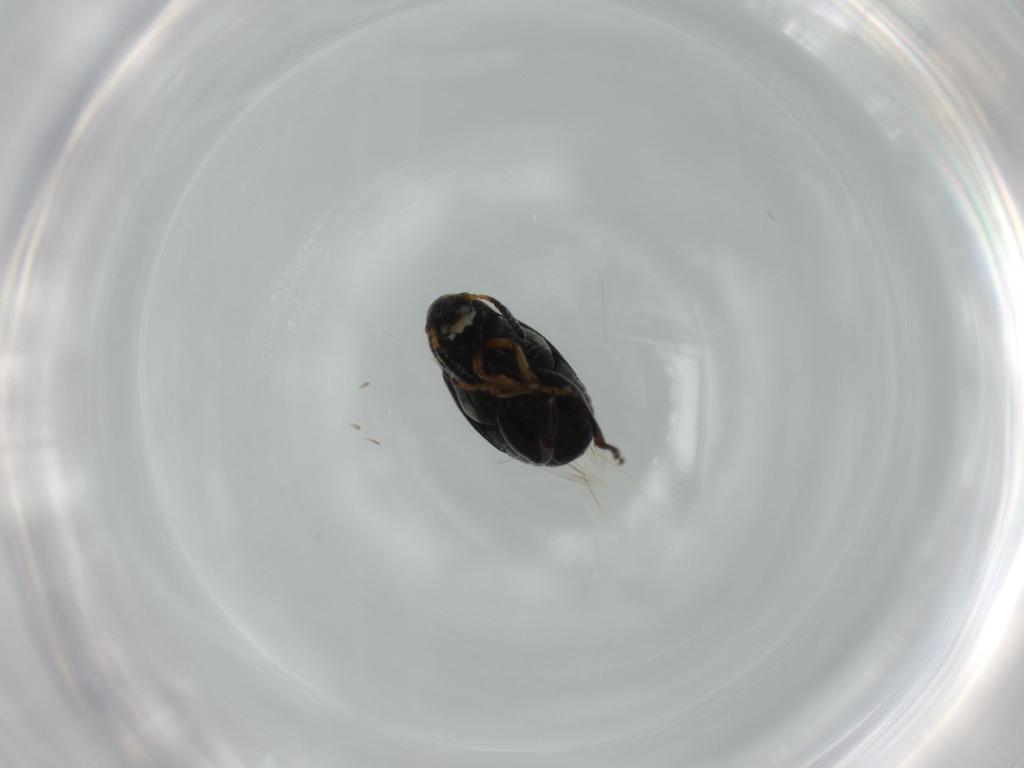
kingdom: Animalia
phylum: Arthropoda
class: Insecta
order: Coleoptera
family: Chrysomelidae
